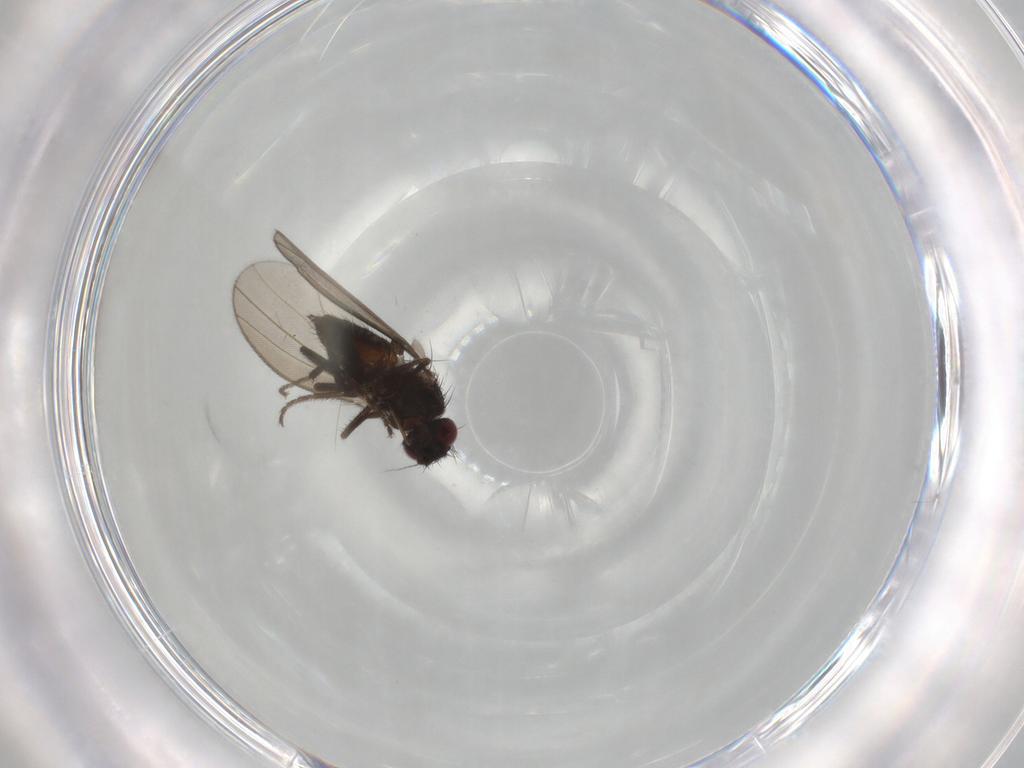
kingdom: Animalia
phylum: Arthropoda
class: Insecta
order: Diptera
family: Milichiidae
